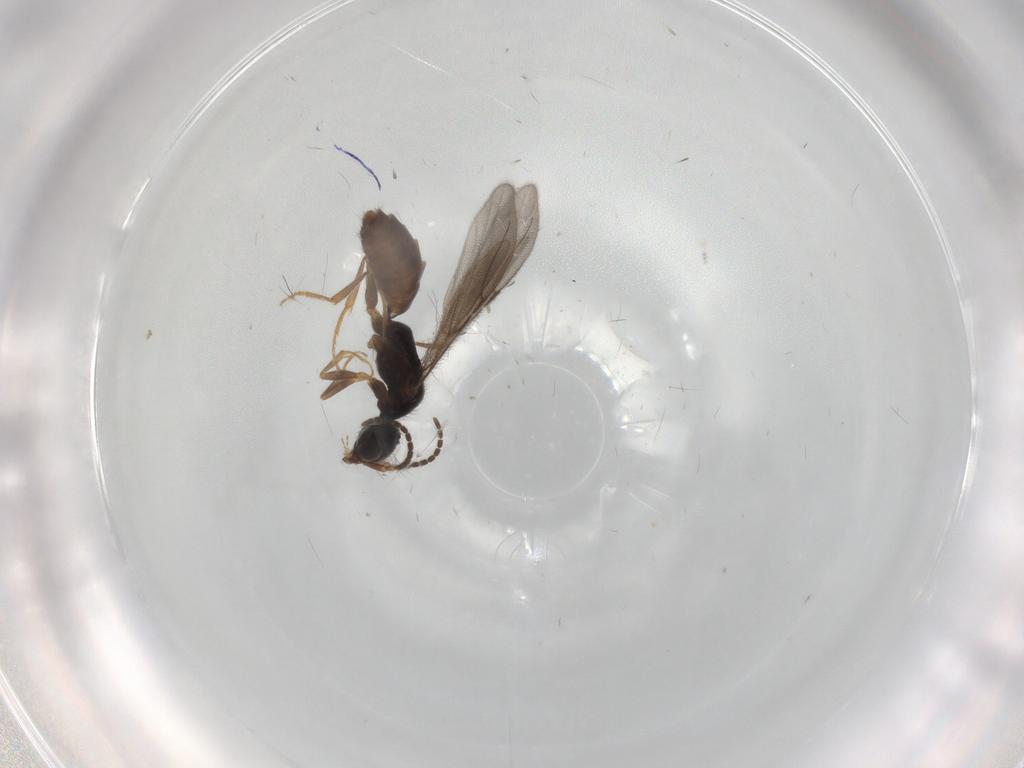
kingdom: Animalia
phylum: Arthropoda
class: Insecta
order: Hymenoptera
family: Bethylidae
